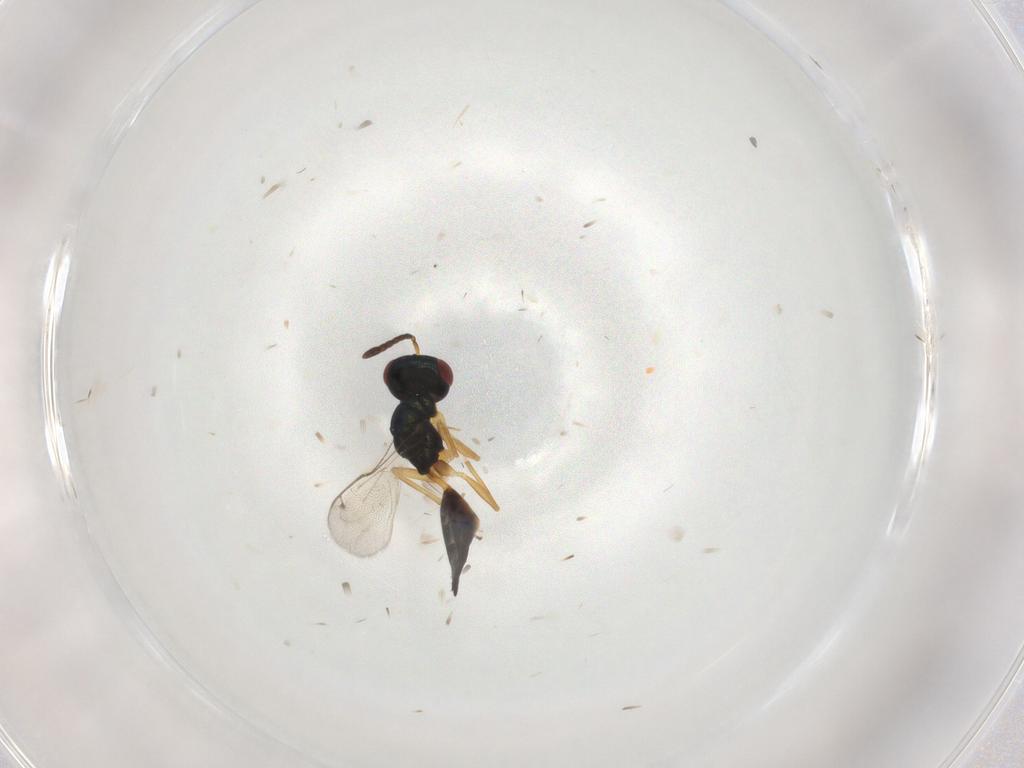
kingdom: Animalia
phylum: Arthropoda
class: Insecta
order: Hymenoptera
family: Pteromalidae
